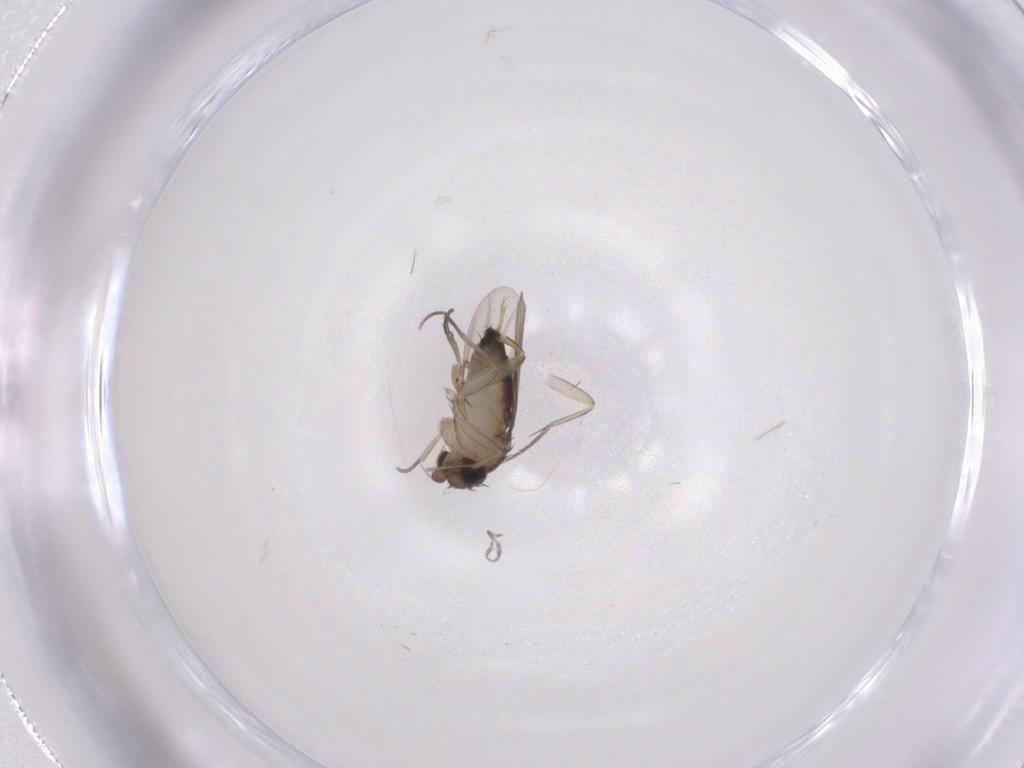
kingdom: Animalia
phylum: Arthropoda
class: Insecta
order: Diptera
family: Phoridae
